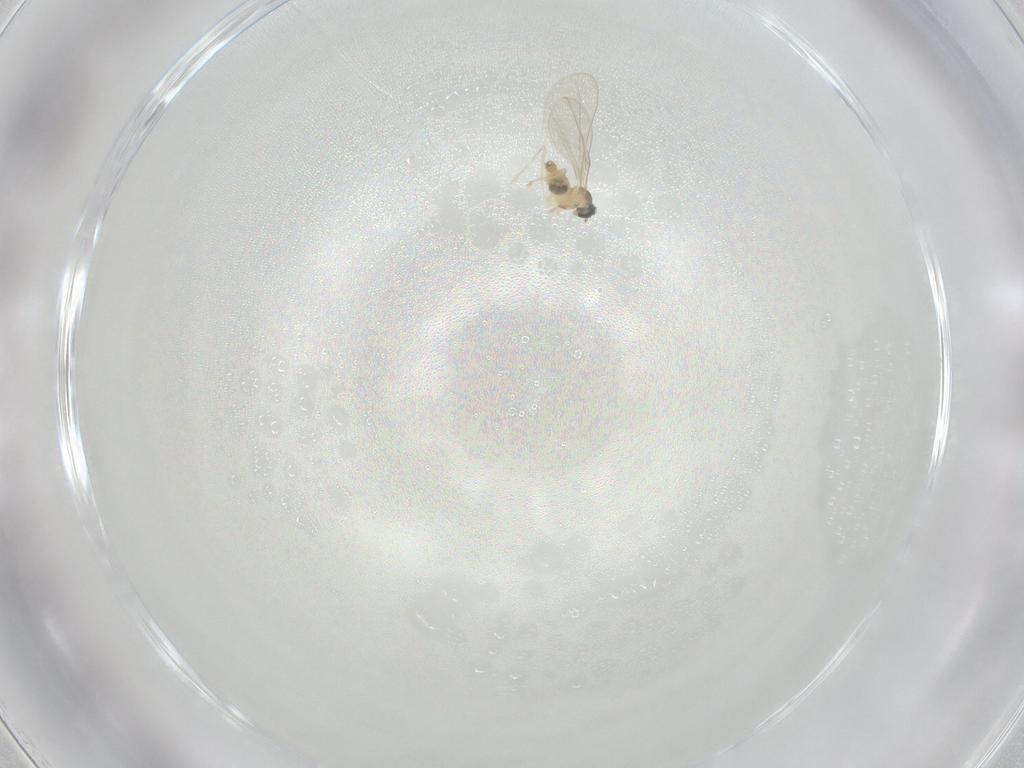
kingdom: Animalia
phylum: Arthropoda
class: Insecta
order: Diptera
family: Cecidomyiidae
